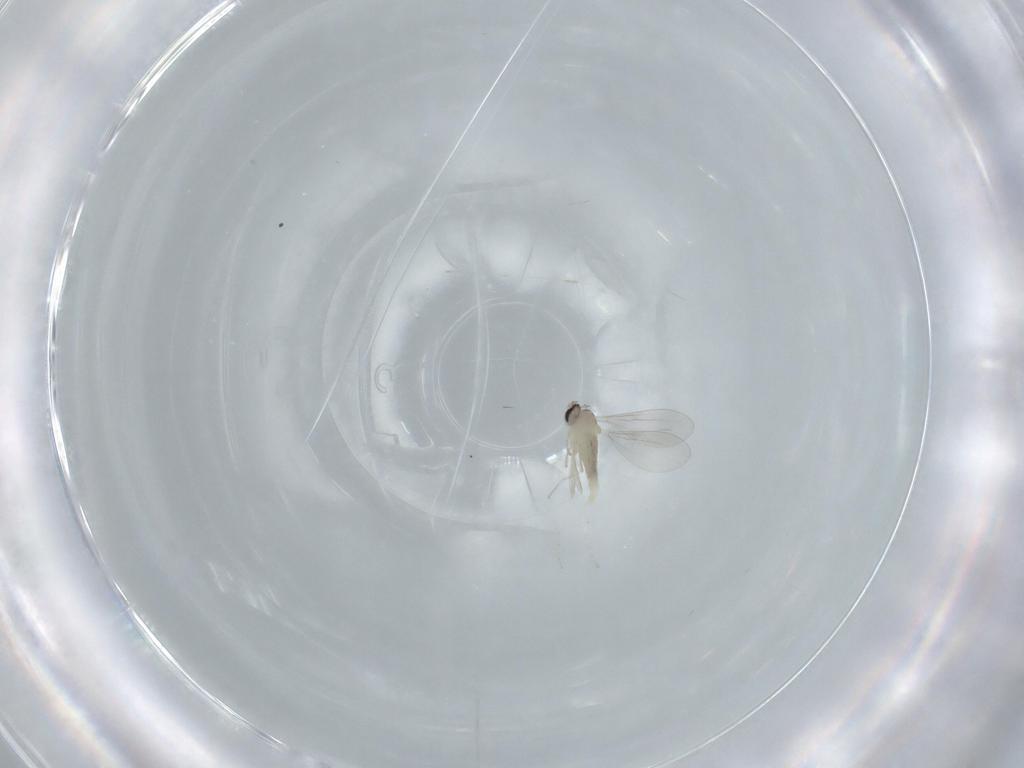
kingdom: Animalia
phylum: Arthropoda
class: Insecta
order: Diptera
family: Cecidomyiidae
